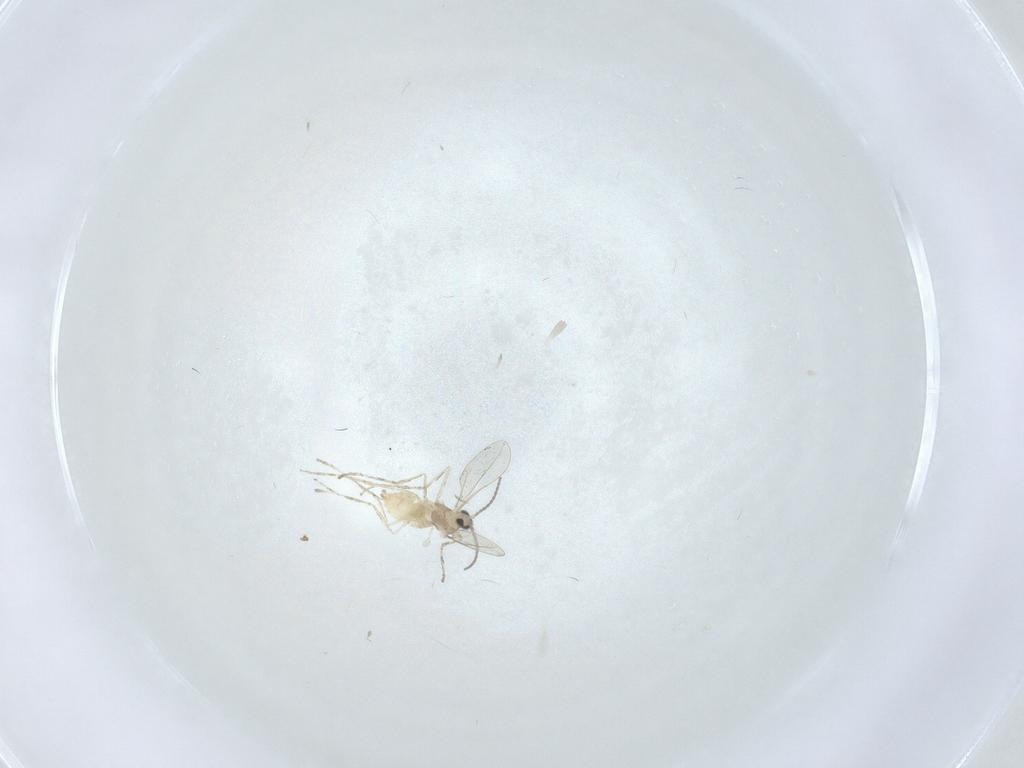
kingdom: Animalia
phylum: Arthropoda
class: Insecta
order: Diptera
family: Cecidomyiidae
